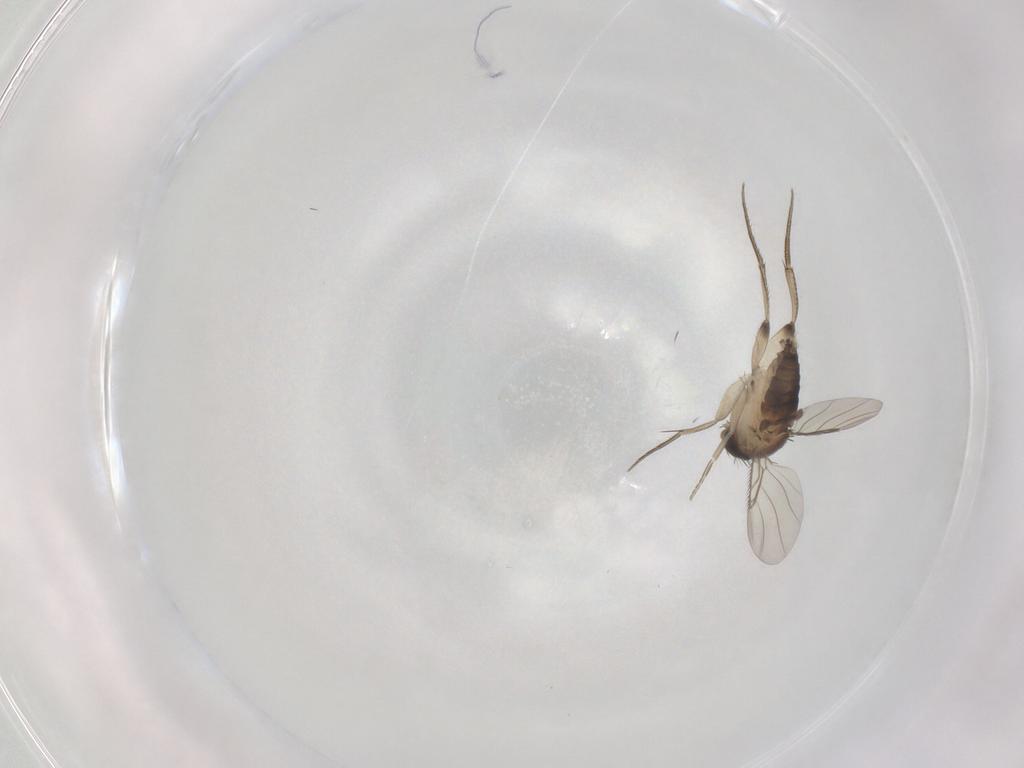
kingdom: Animalia
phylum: Arthropoda
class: Insecta
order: Diptera
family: Phoridae
